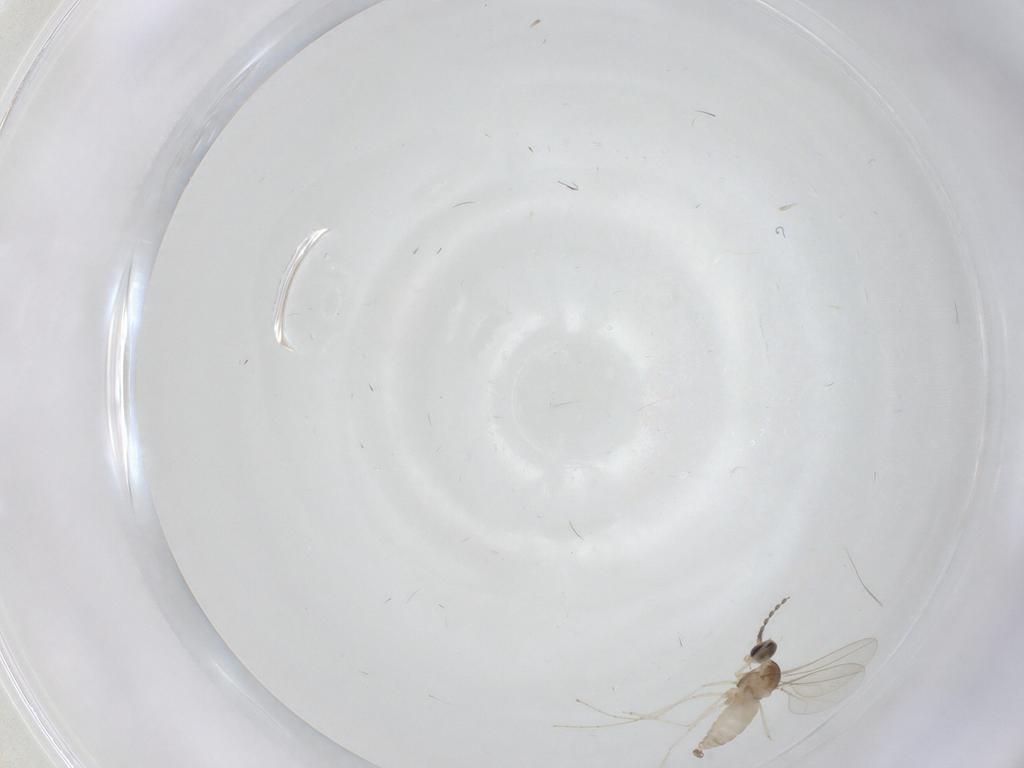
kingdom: Animalia
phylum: Arthropoda
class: Insecta
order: Diptera
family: Cecidomyiidae
